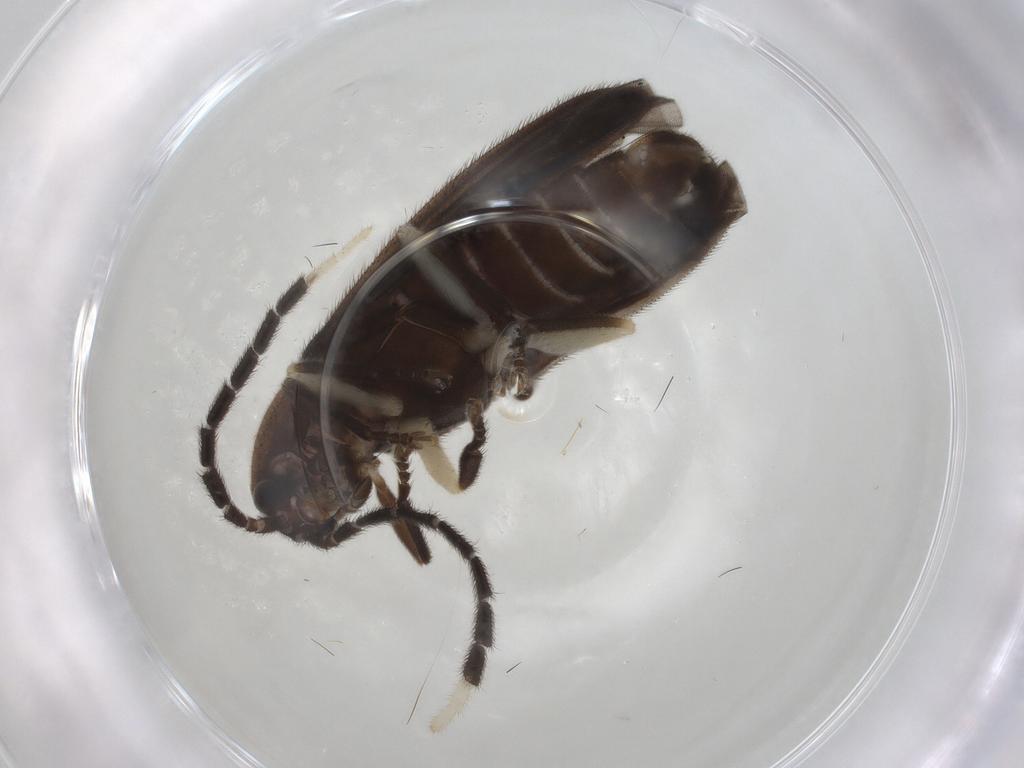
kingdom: Animalia
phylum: Arthropoda
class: Insecta
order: Coleoptera
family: Lampyridae
